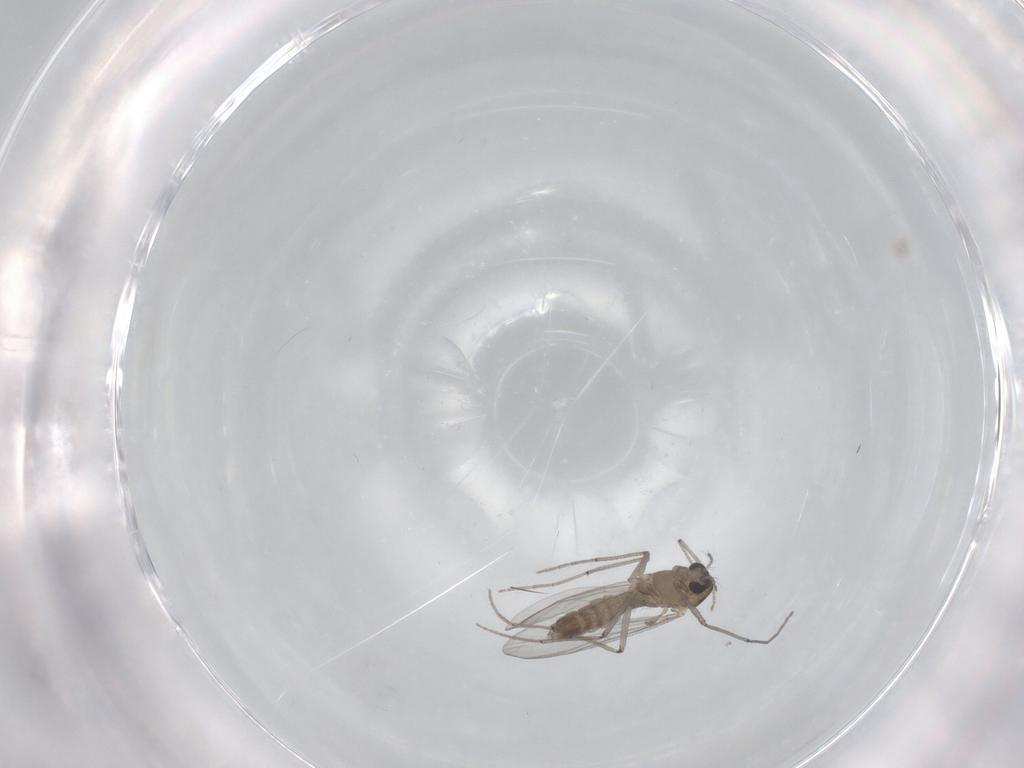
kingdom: Animalia
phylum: Arthropoda
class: Insecta
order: Diptera
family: Chironomidae
